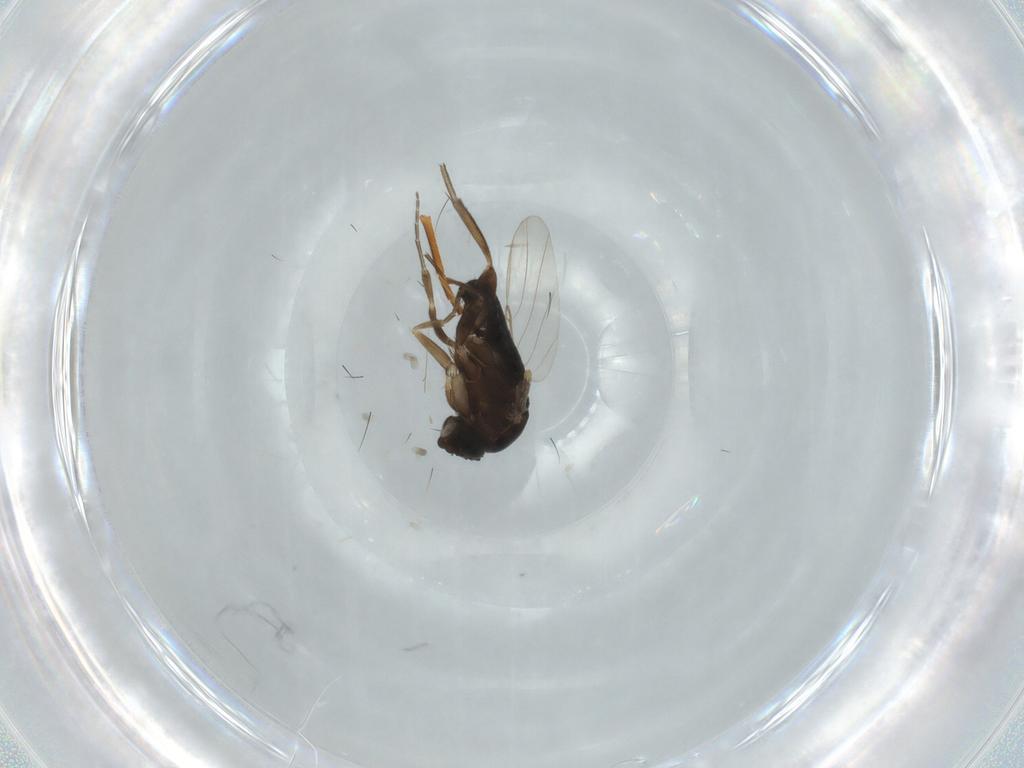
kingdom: Animalia
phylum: Arthropoda
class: Insecta
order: Diptera
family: Phoridae
